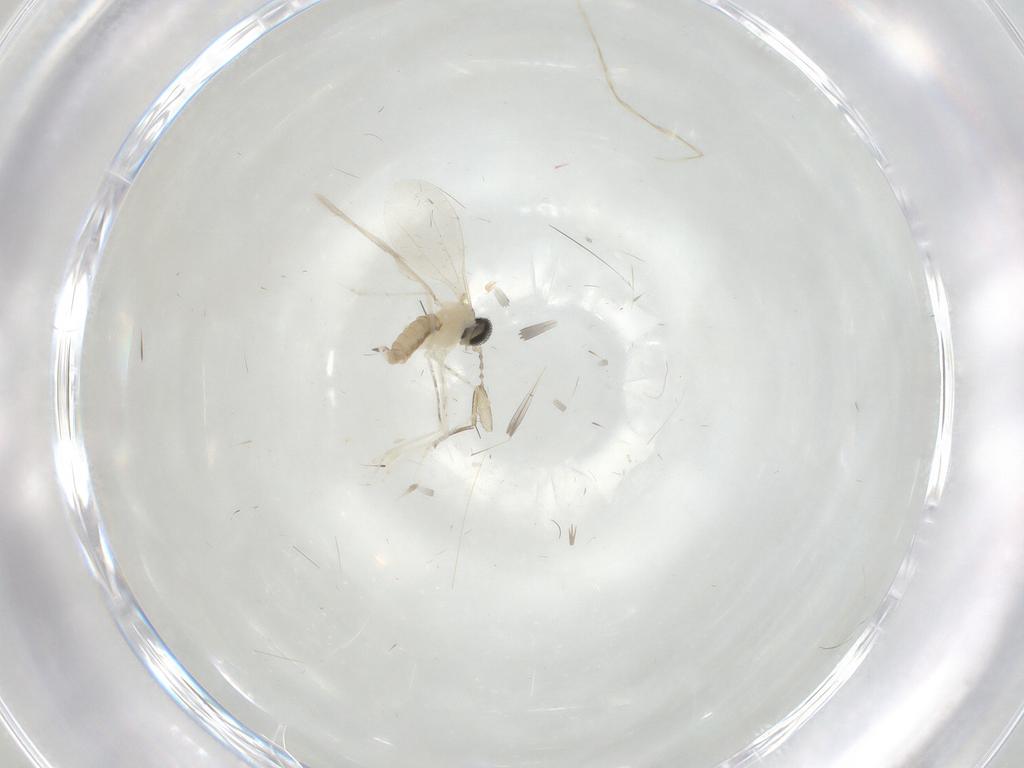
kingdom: Animalia
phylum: Arthropoda
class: Insecta
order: Diptera
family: Cecidomyiidae
